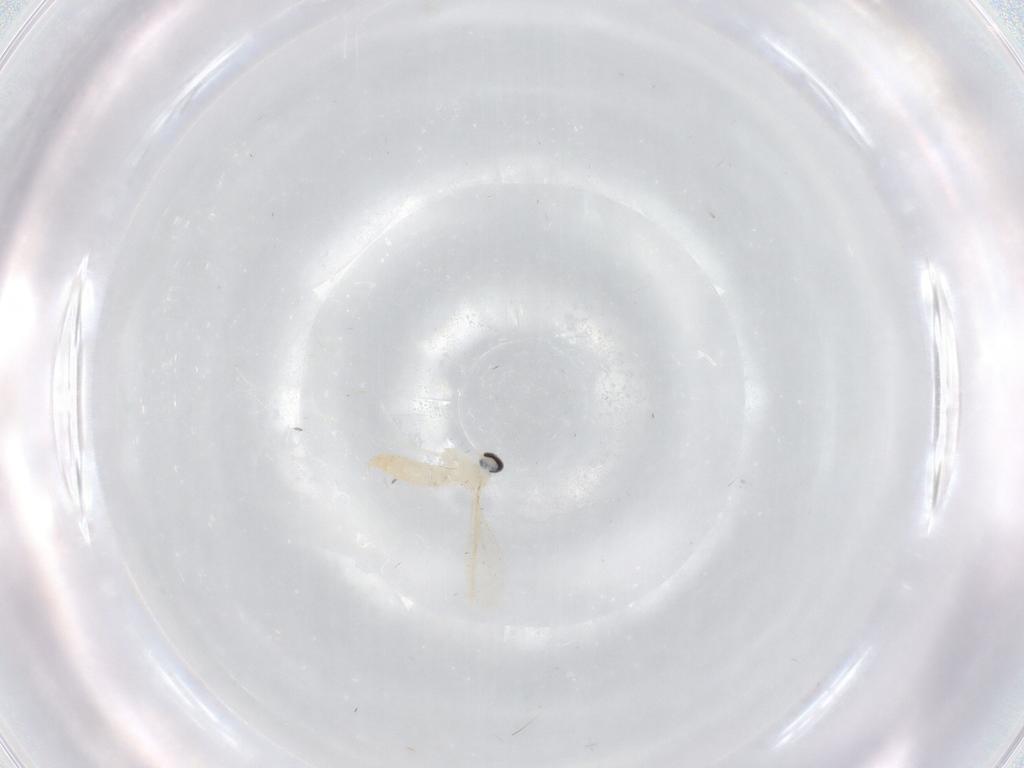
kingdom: Animalia
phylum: Arthropoda
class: Insecta
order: Diptera
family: Cecidomyiidae
